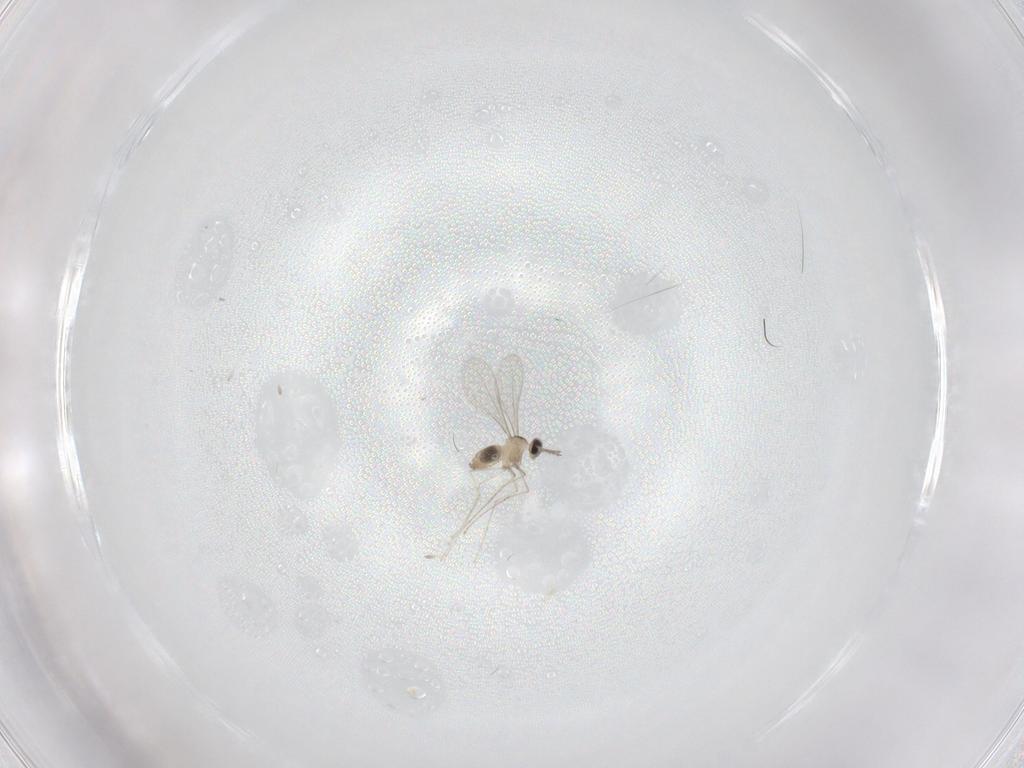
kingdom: Animalia
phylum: Arthropoda
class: Insecta
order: Diptera
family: Cecidomyiidae
